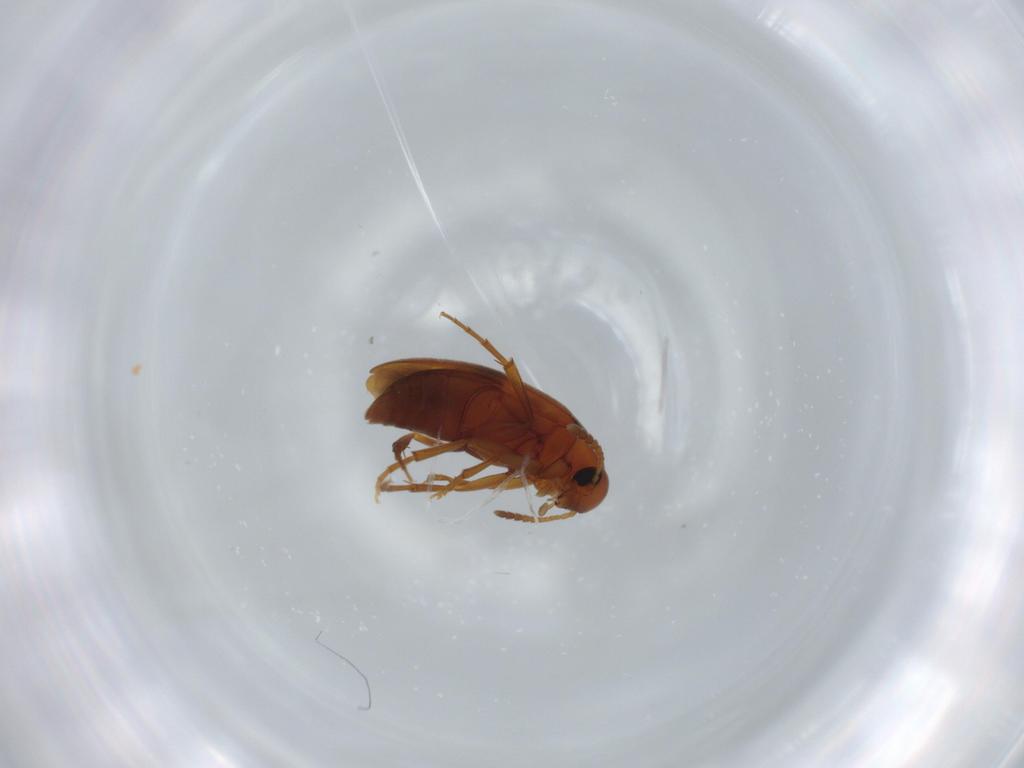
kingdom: Animalia
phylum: Arthropoda
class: Insecta
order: Coleoptera
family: Scraptiidae
